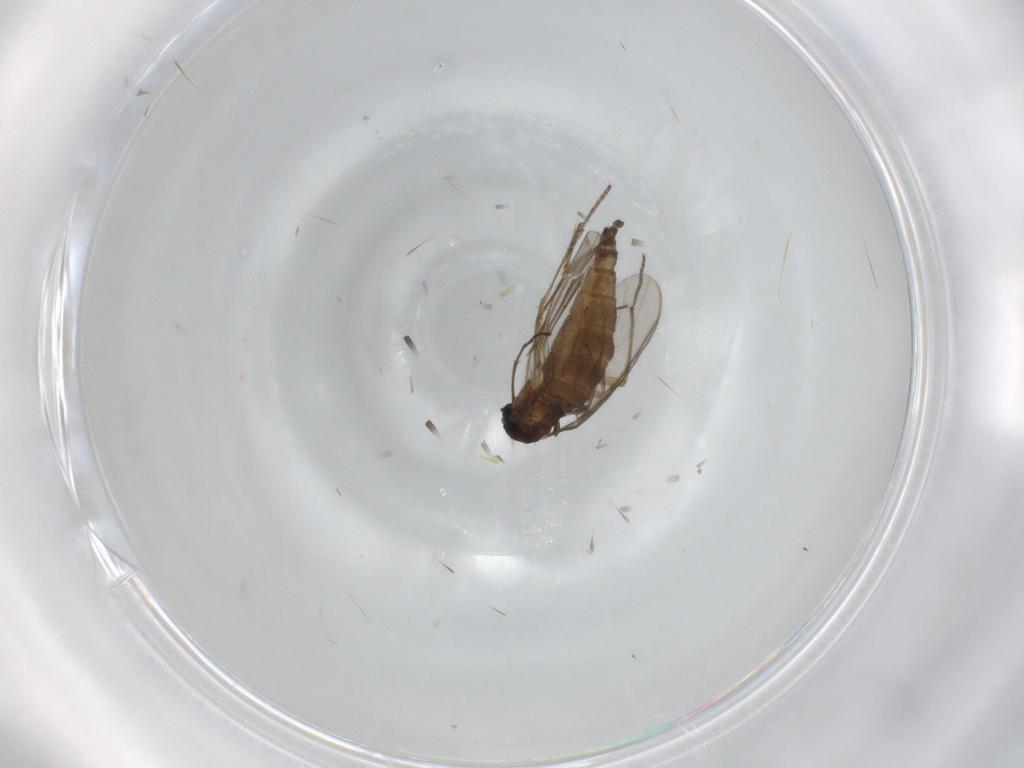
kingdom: Animalia
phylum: Arthropoda
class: Insecta
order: Diptera
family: Sciaridae
